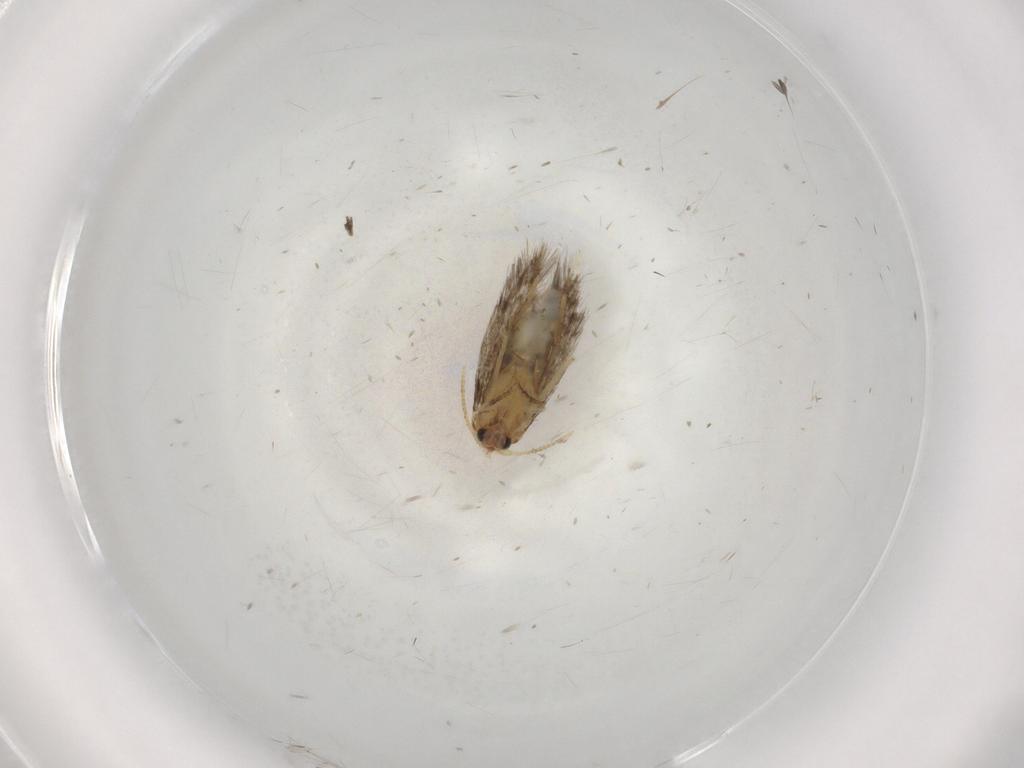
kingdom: Animalia
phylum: Arthropoda
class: Insecta
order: Lepidoptera
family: Copromorphidae
